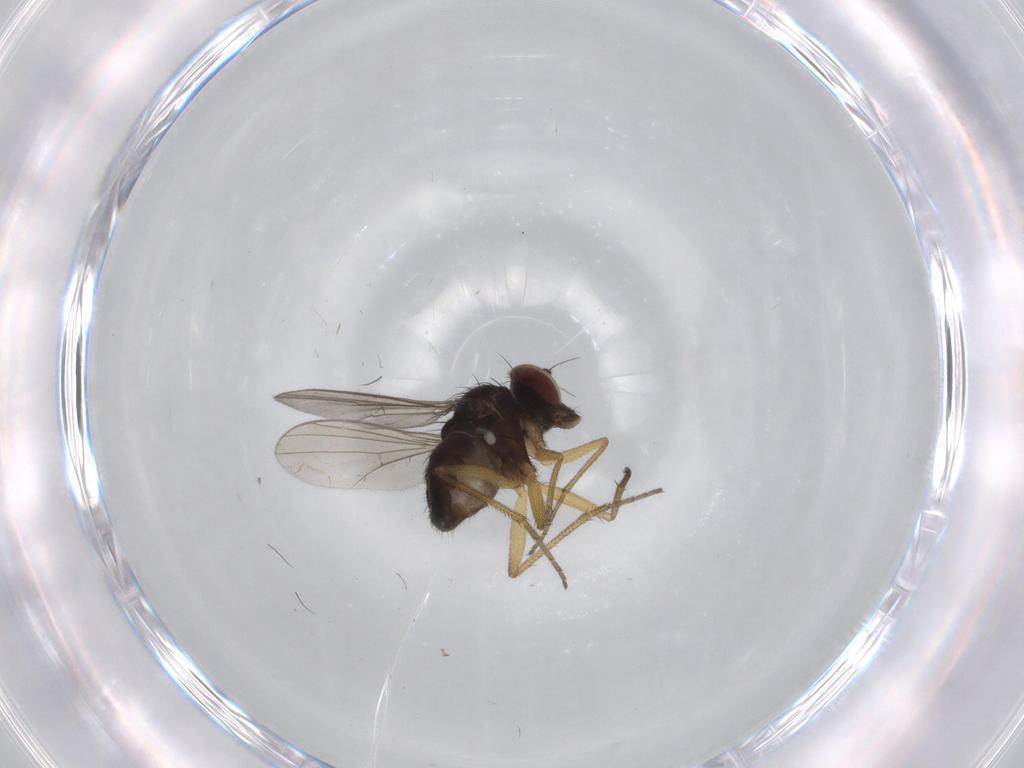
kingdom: Animalia
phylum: Arthropoda
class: Insecta
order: Diptera
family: Dolichopodidae
